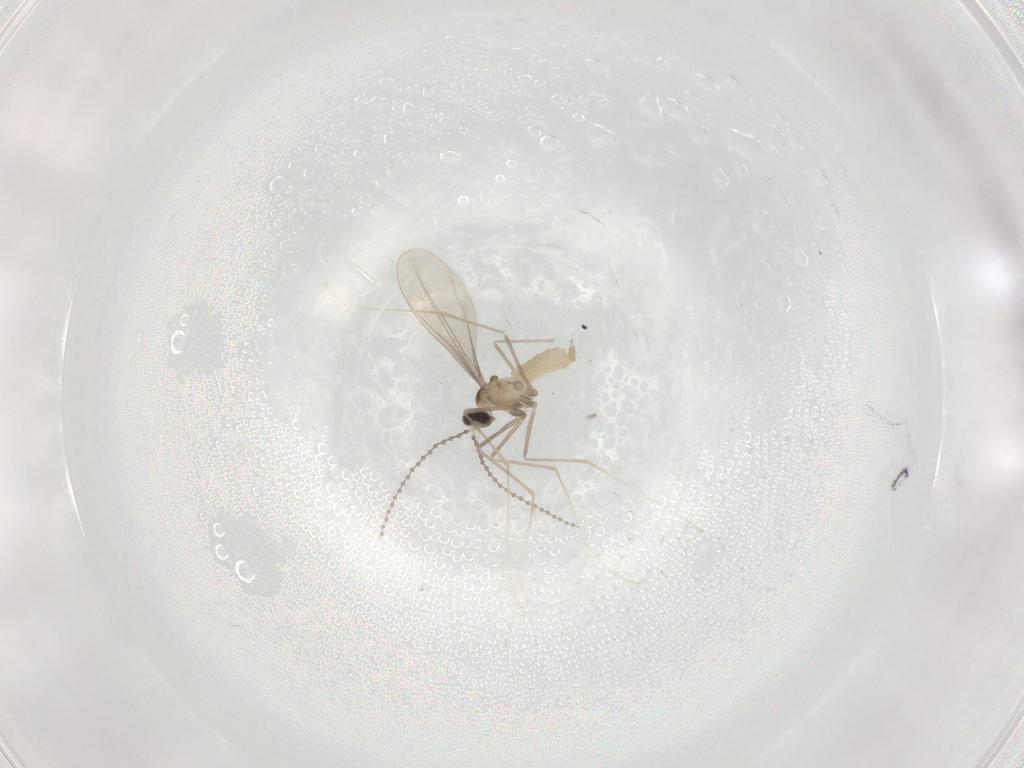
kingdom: Animalia
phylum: Arthropoda
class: Insecta
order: Diptera
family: Cecidomyiidae
